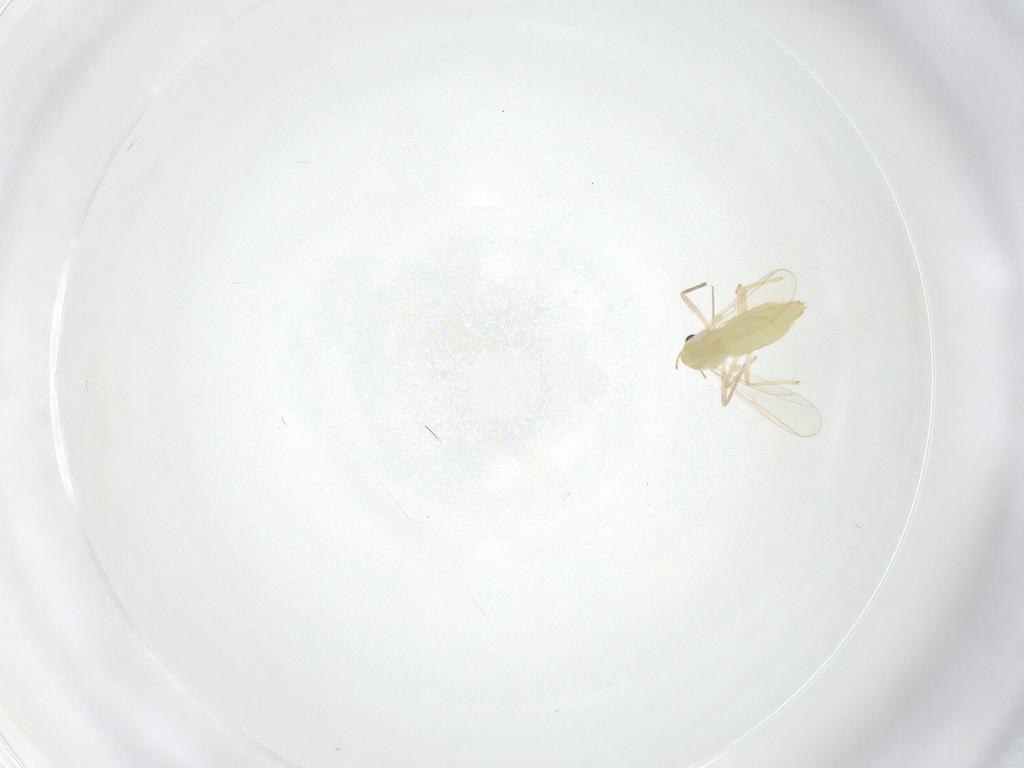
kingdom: Animalia
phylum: Arthropoda
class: Insecta
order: Diptera
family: Chironomidae
